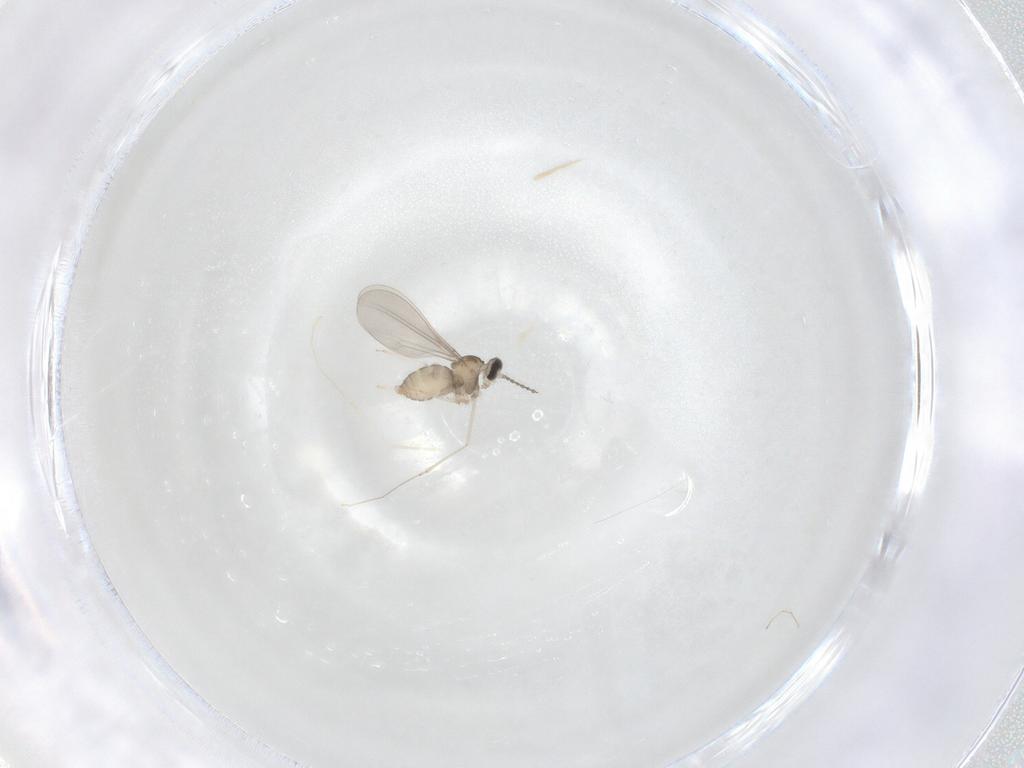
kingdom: Animalia
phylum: Arthropoda
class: Insecta
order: Diptera
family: Cecidomyiidae
